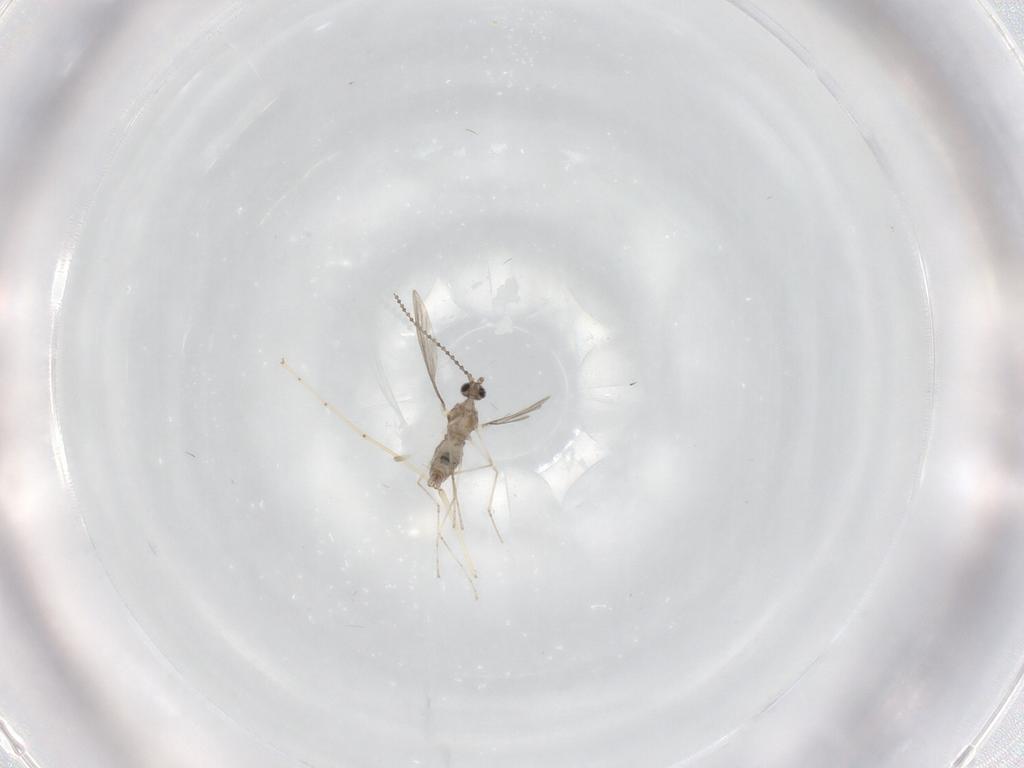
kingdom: Animalia
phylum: Arthropoda
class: Insecta
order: Diptera
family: Cecidomyiidae
